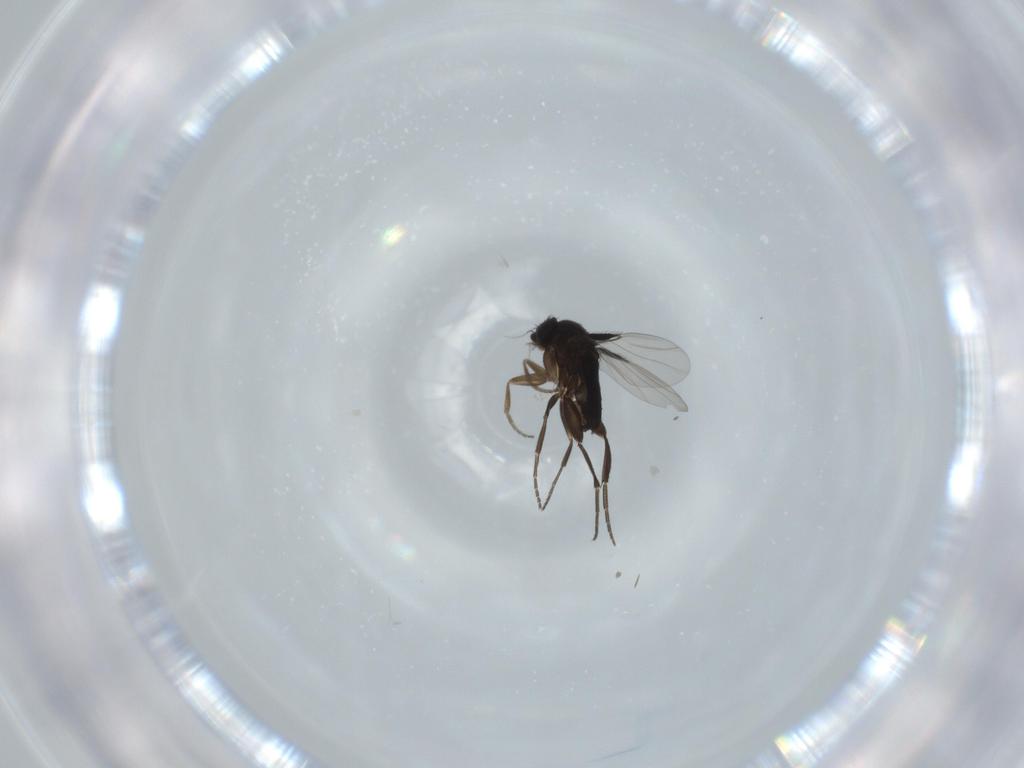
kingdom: Animalia
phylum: Arthropoda
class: Insecta
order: Diptera
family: Phoridae
